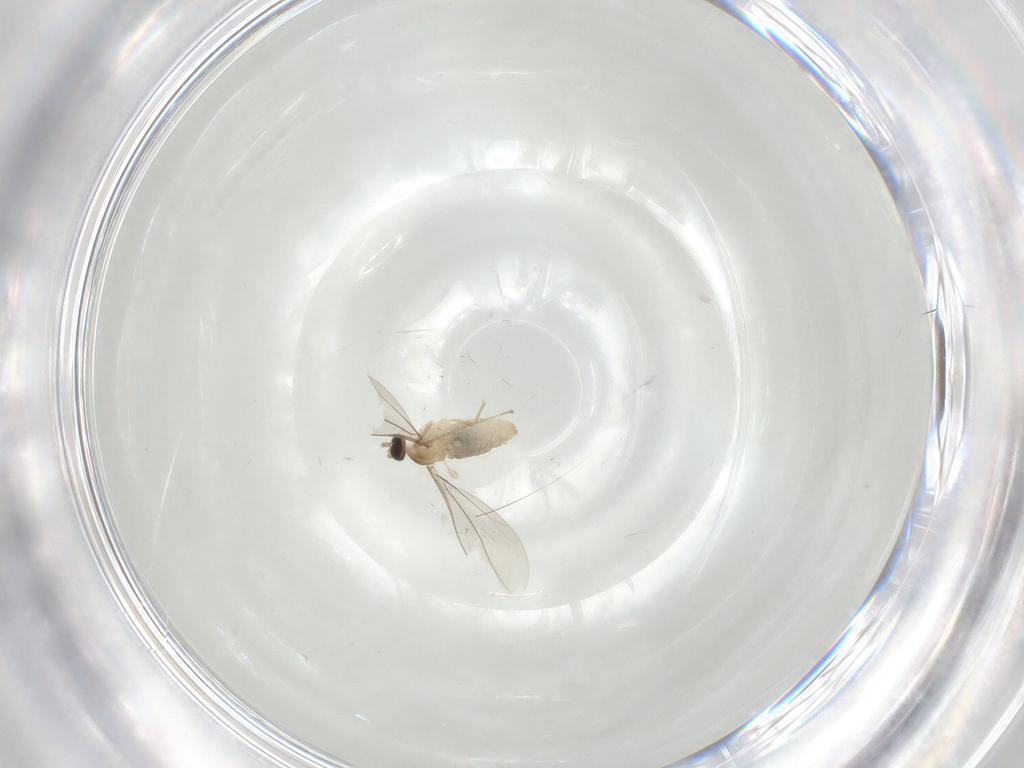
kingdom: Animalia
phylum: Arthropoda
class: Insecta
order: Diptera
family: Cecidomyiidae
